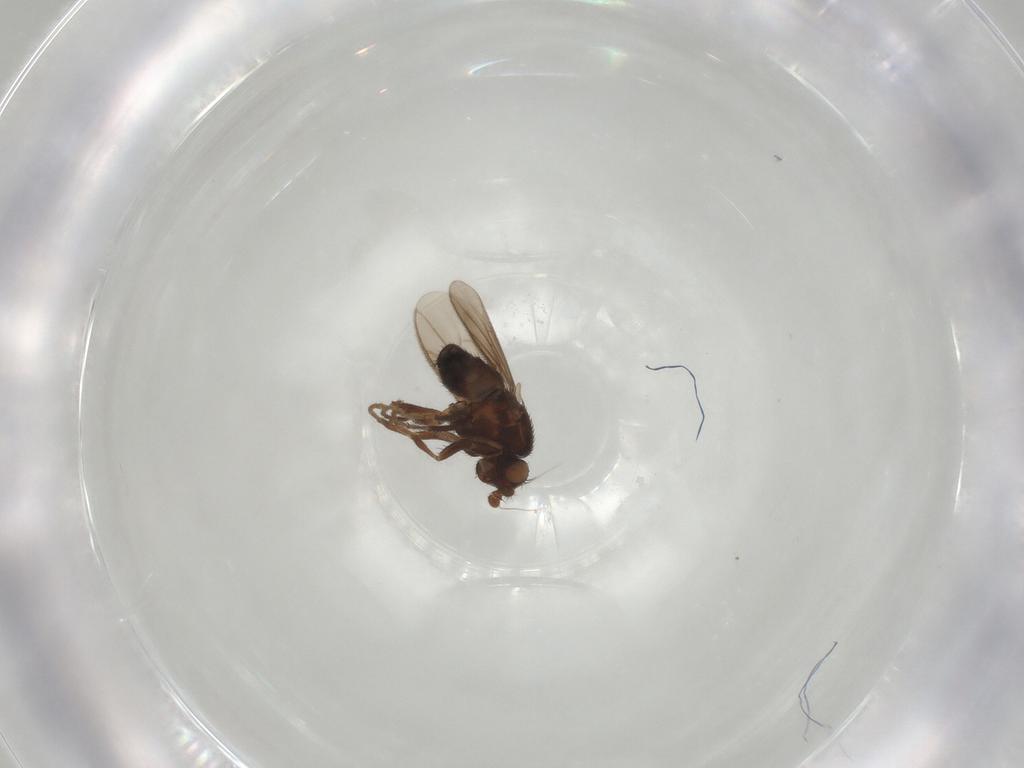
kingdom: Animalia
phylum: Arthropoda
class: Insecta
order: Diptera
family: Sphaeroceridae
